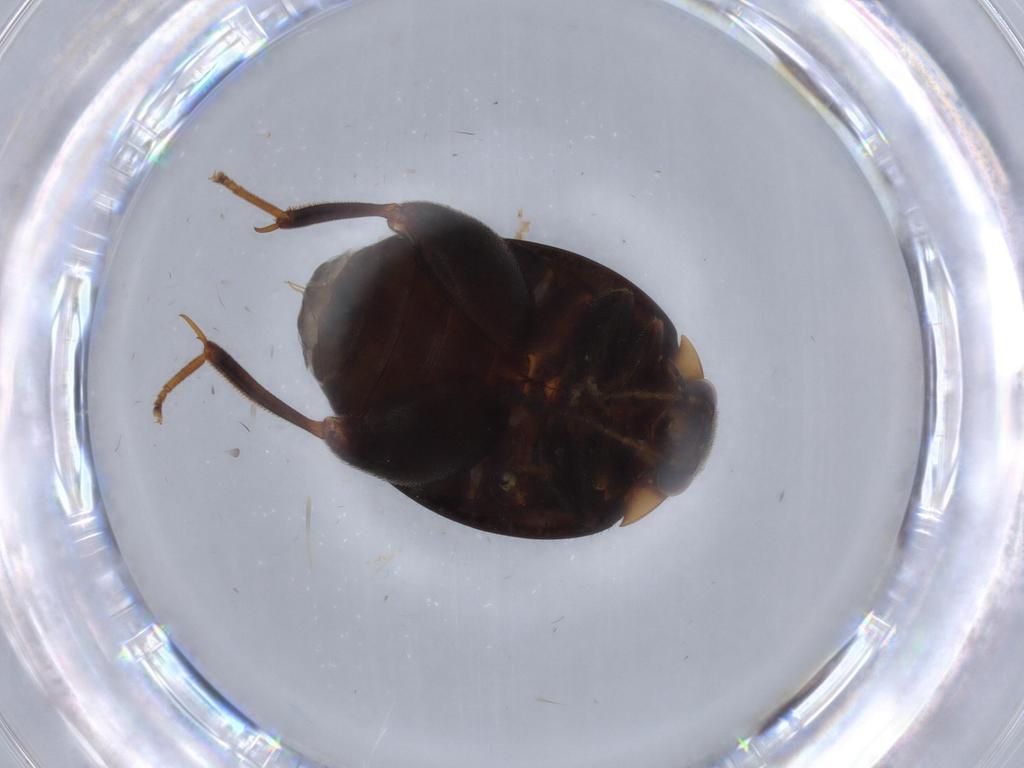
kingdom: Animalia
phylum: Arthropoda
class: Insecta
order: Coleoptera
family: Scirtidae
